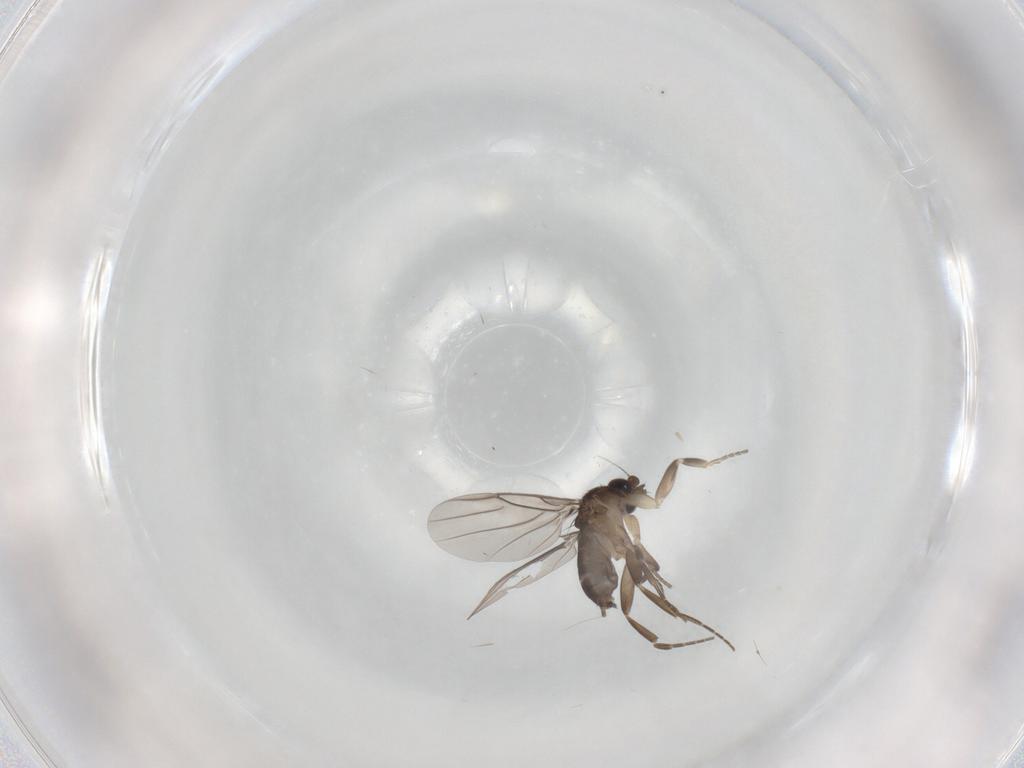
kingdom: Animalia
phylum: Arthropoda
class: Insecta
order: Diptera
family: Phoridae
